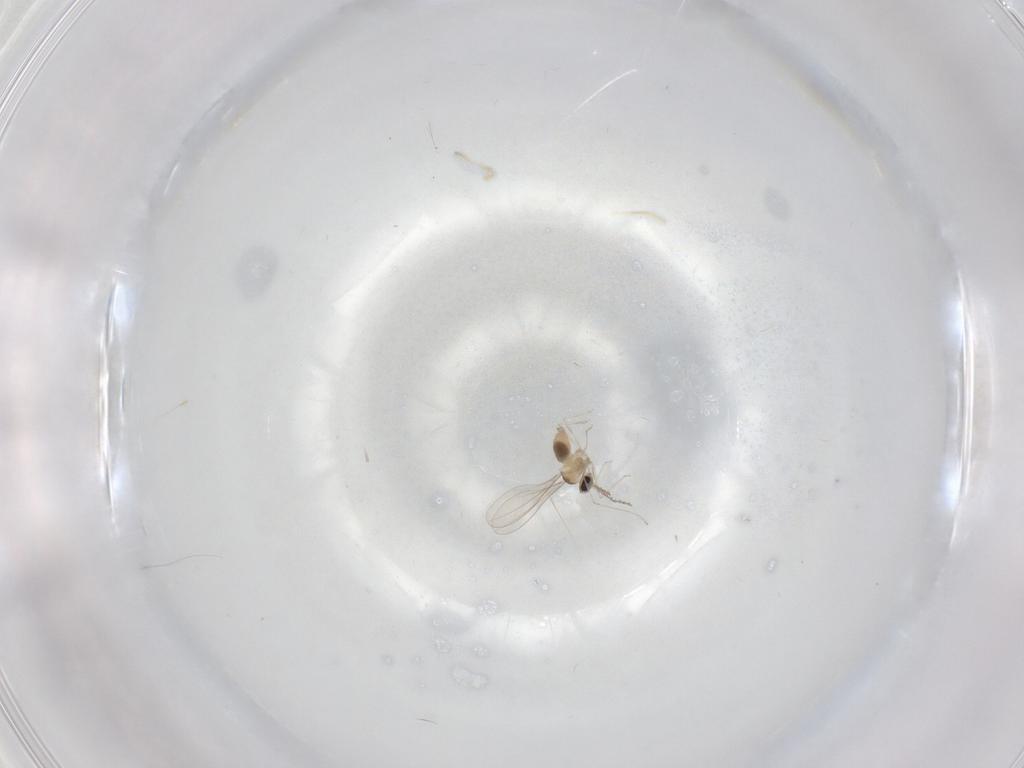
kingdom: Animalia
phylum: Arthropoda
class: Insecta
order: Diptera
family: Cecidomyiidae
